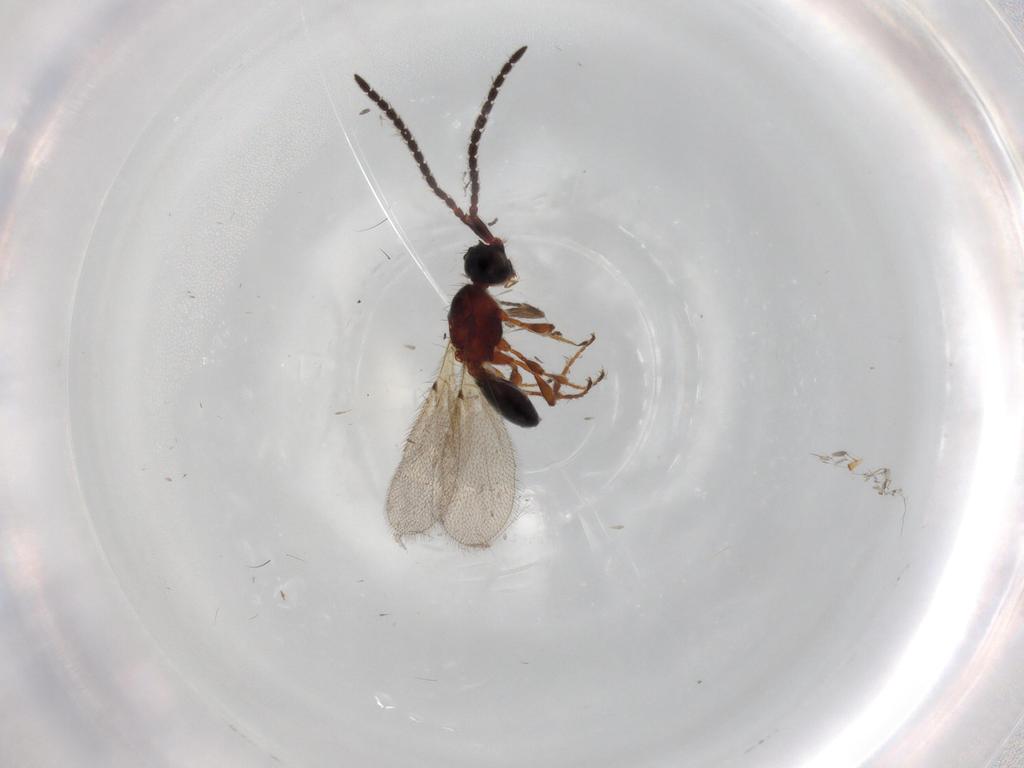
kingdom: Animalia
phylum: Arthropoda
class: Insecta
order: Hymenoptera
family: Diapriidae
